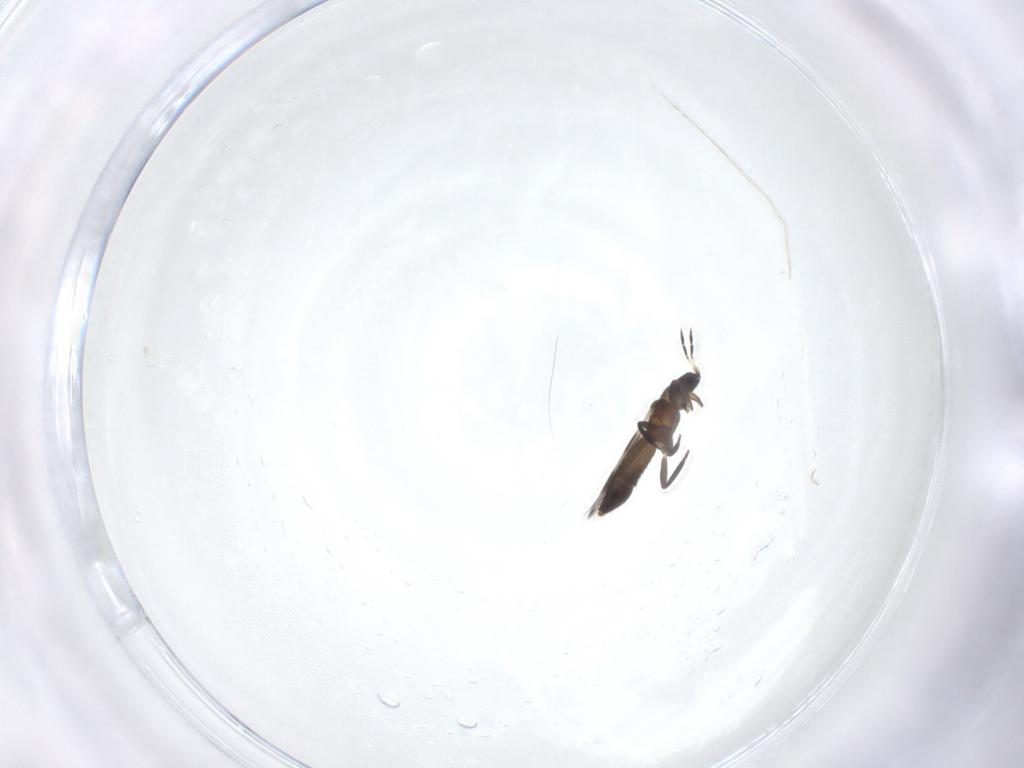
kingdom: Animalia
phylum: Arthropoda
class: Insecta
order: Thysanoptera
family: Aeolothripidae
